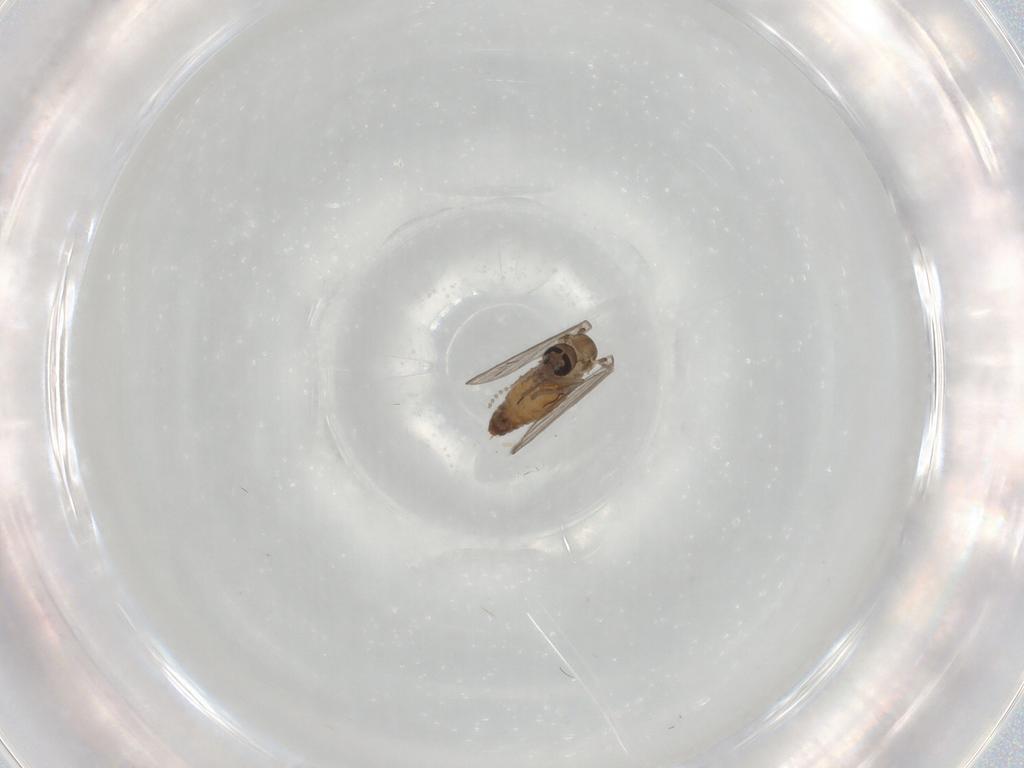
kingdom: Animalia
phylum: Arthropoda
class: Insecta
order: Diptera
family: Psychodidae
